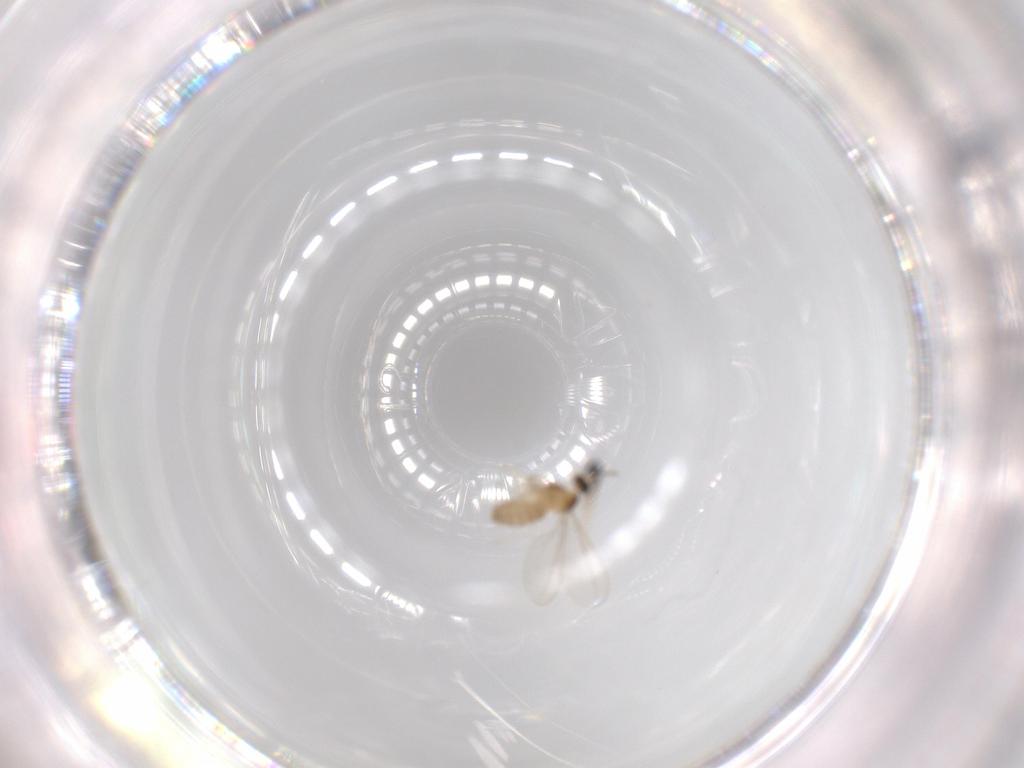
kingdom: Animalia
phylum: Arthropoda
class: Insecta
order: Diptera
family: Cecidomyiidae
